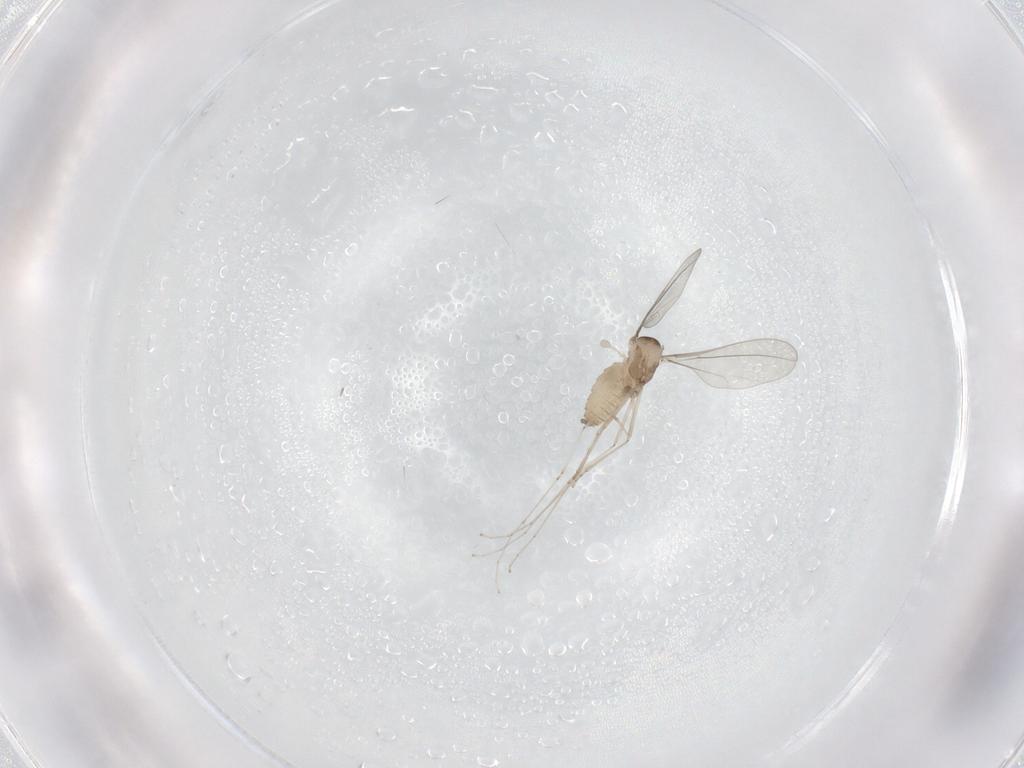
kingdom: Animalia
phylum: Arthropoda
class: Insecta
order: Diptera
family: Cecidomyiidae
